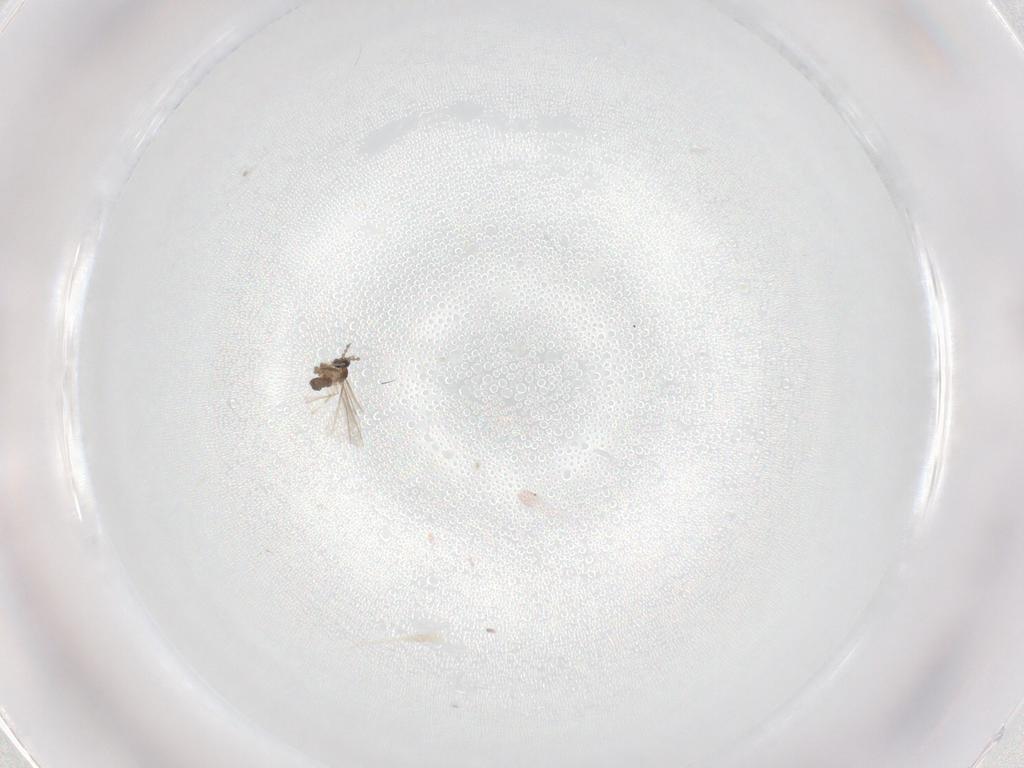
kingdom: Animalia
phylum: Arthropoda
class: Insecta
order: Diptera
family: Cecidomyiidae
